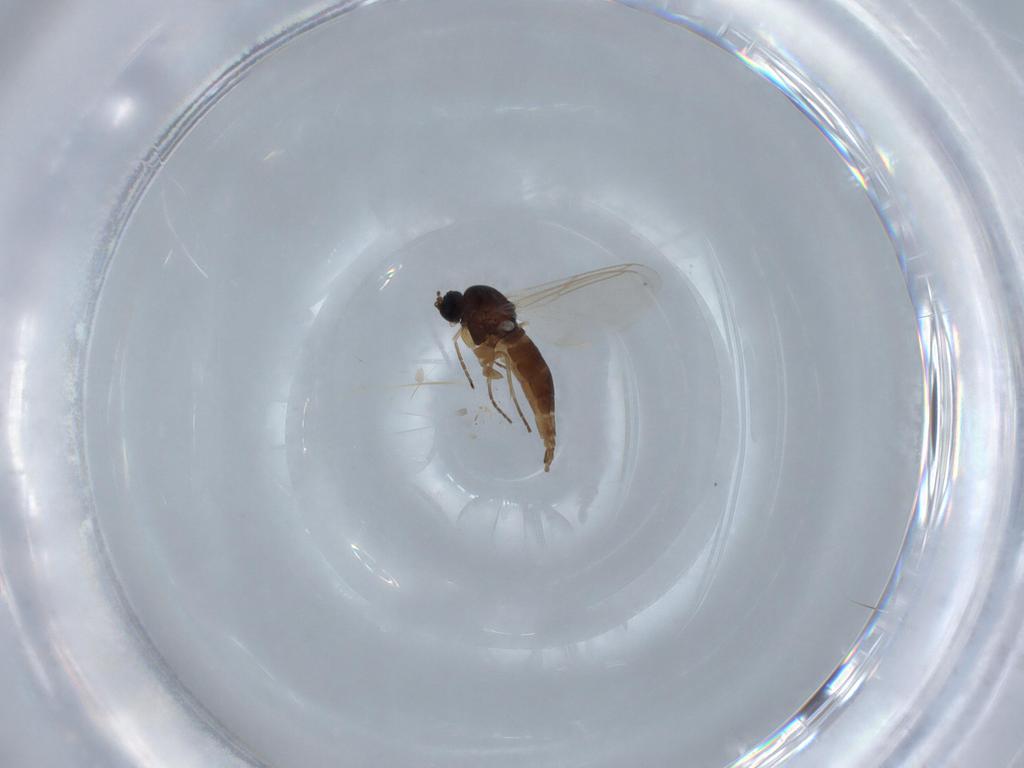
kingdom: Animalia
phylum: Arthropoda
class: Insecta
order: Diptera
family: Sciaridae
